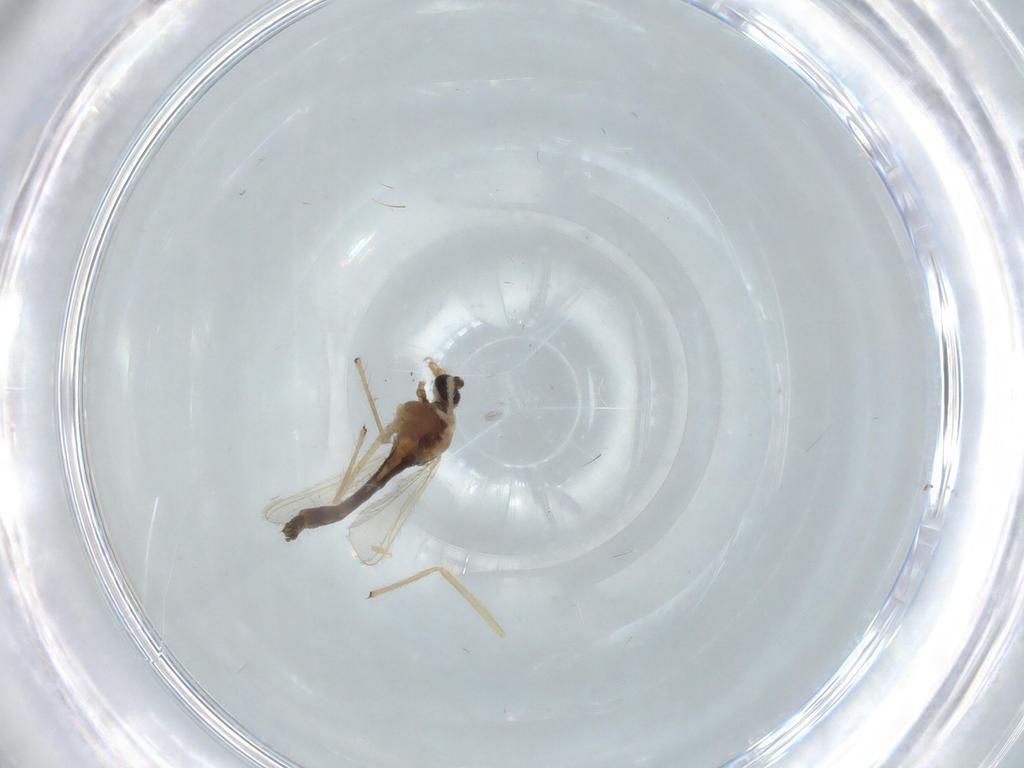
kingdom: Animalia
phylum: Arthropoda
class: Insecta
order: Diptera
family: Chironomidae
